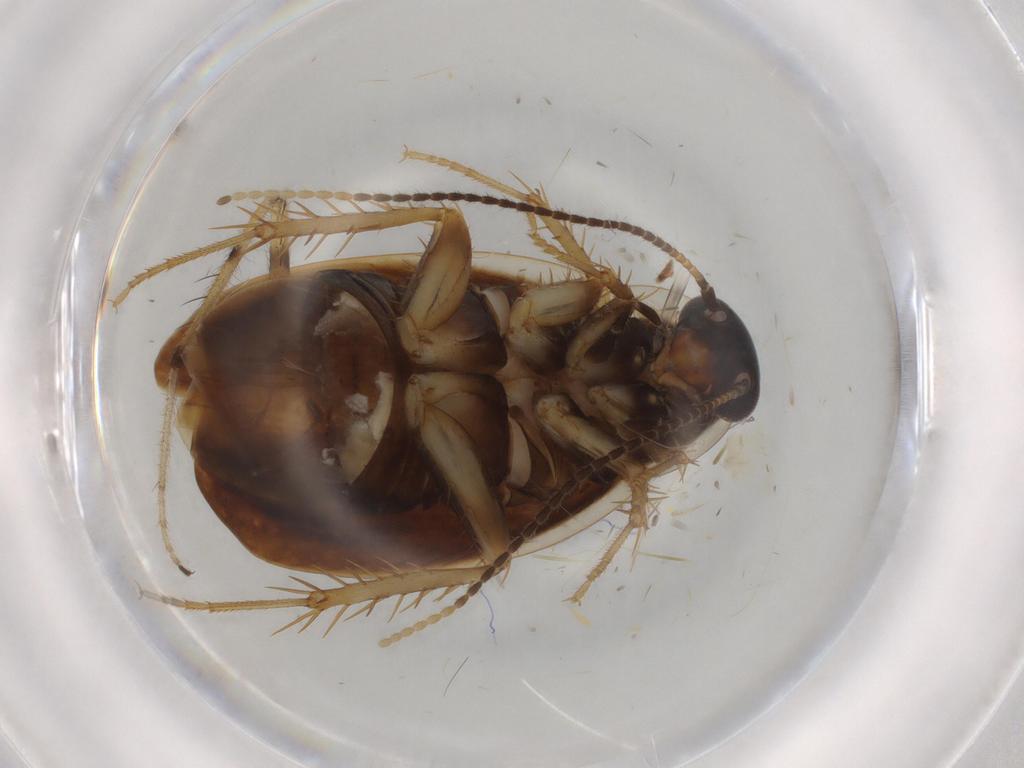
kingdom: Animalia
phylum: Arthropoda
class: Insecta
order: Blattodea
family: Ectobiidae
